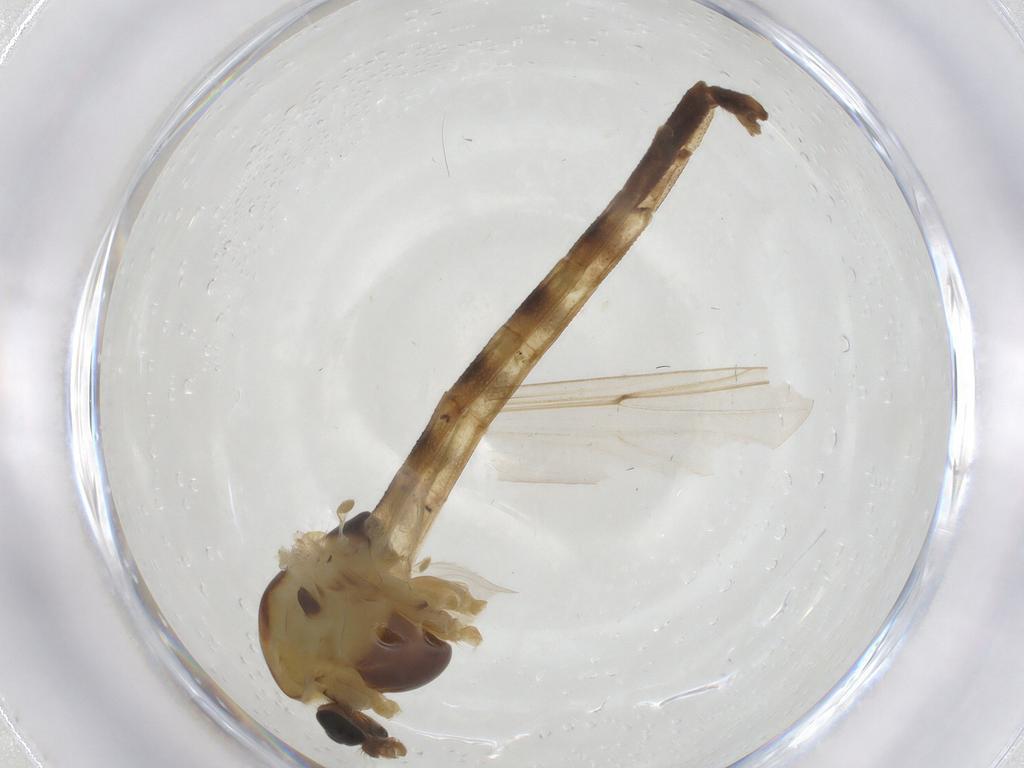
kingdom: Animalia
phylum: Arthropoda
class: Insecta
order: Diptera
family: Chironomidae
